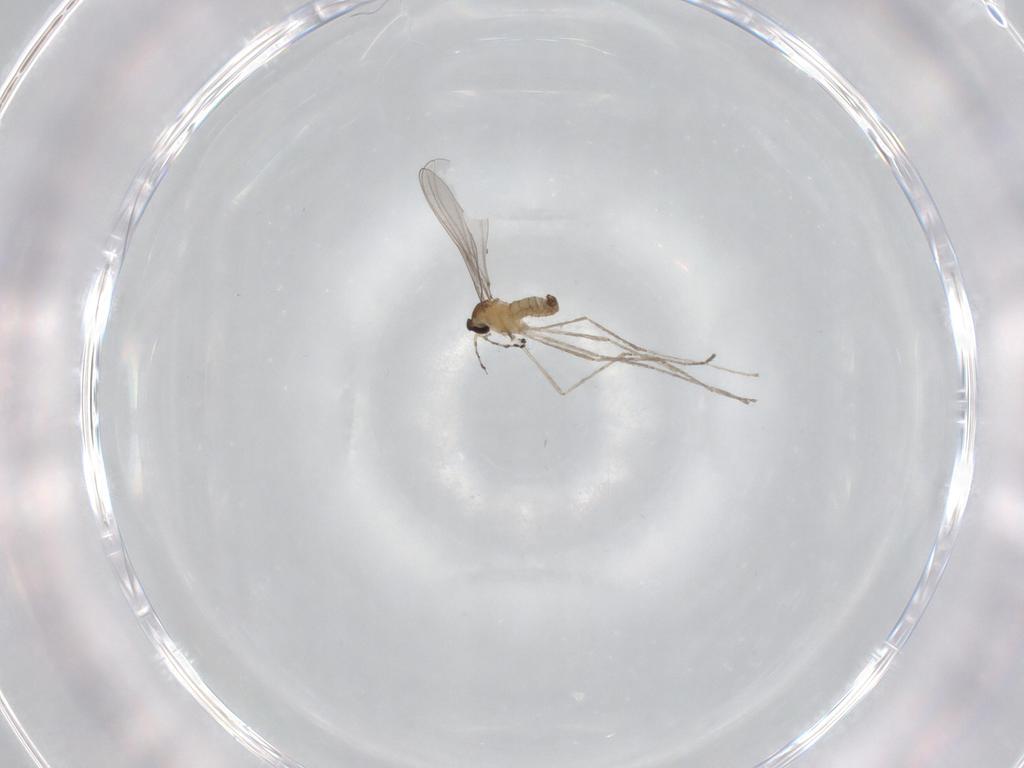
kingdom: Animalia
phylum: Arthropoda
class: Insecta
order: Diptera
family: Cecidomyiidae
